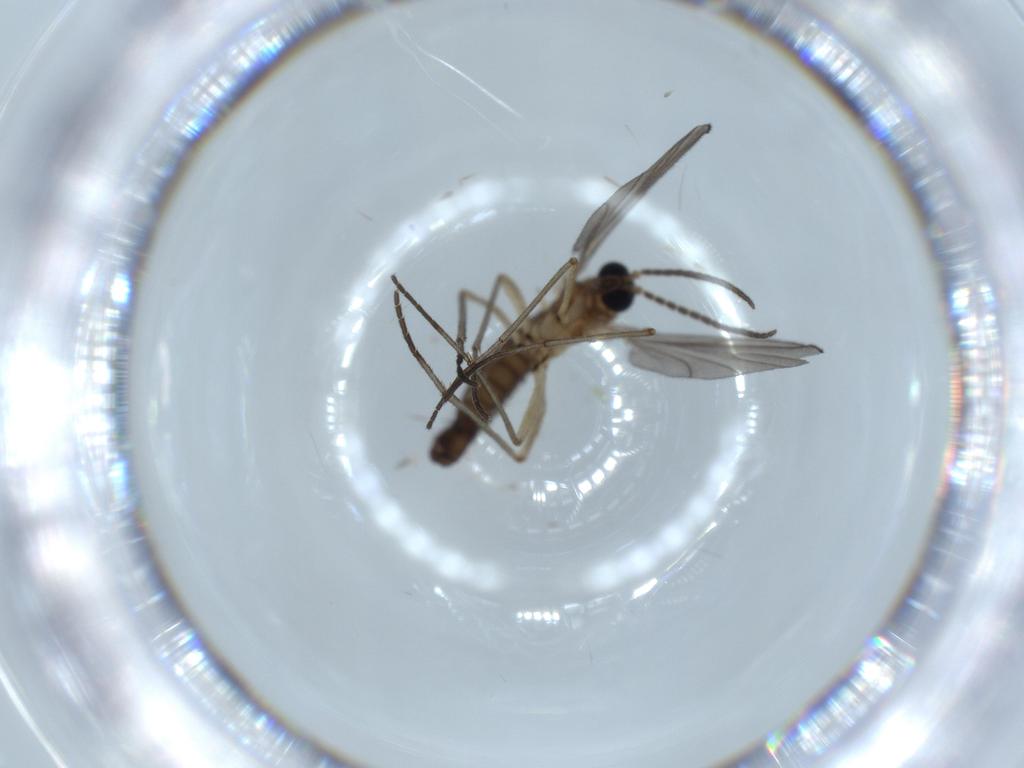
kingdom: Animalia
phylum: Arthropoda
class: Insecta
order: Diptera
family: Sciaridae
